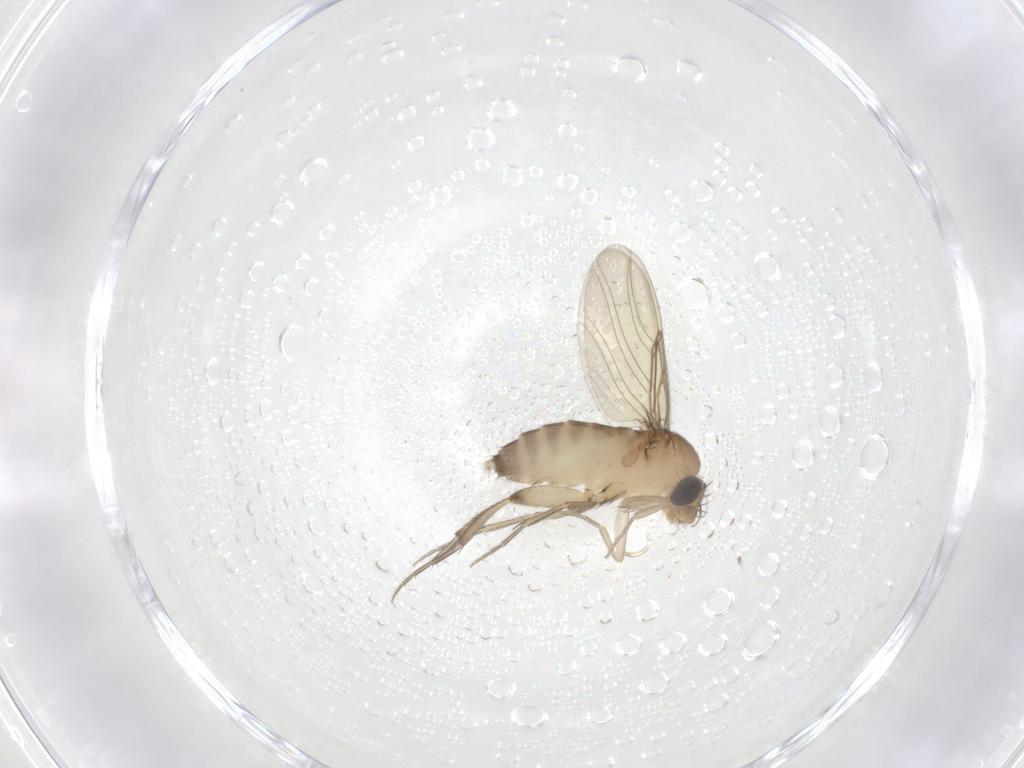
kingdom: Animalia
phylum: Arthropoda
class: Insecta
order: Diptera
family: Phoridae
